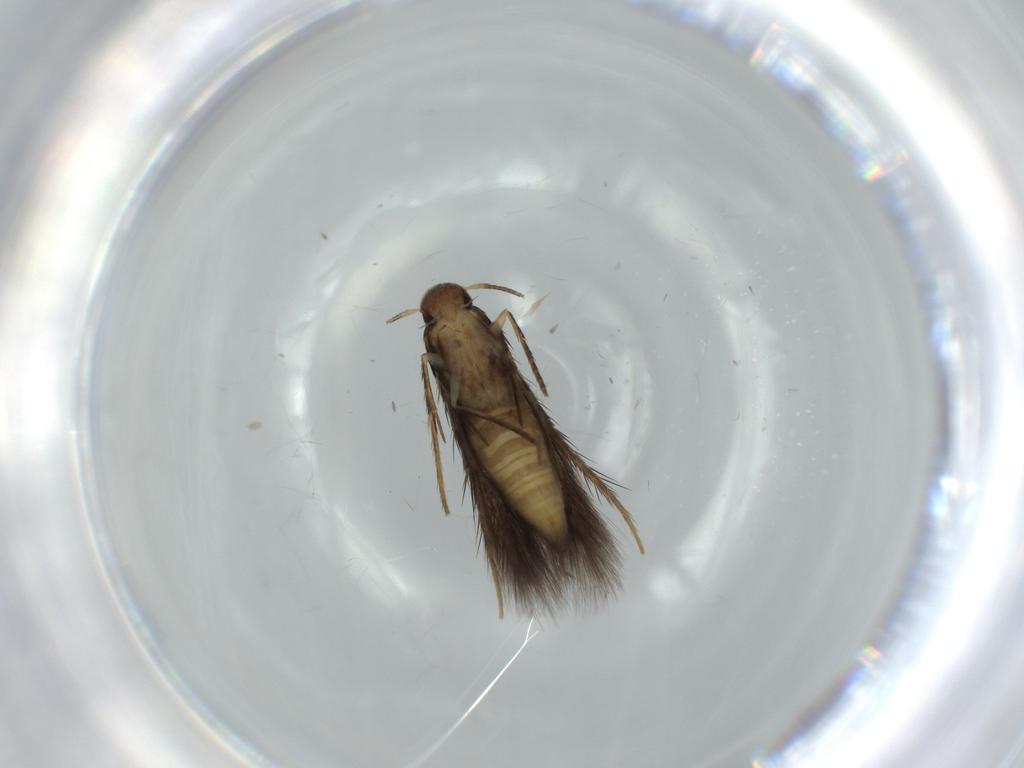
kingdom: Animalia
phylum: Arthropoda
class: Insecta
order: Lepidoptera
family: Gelechiidae
